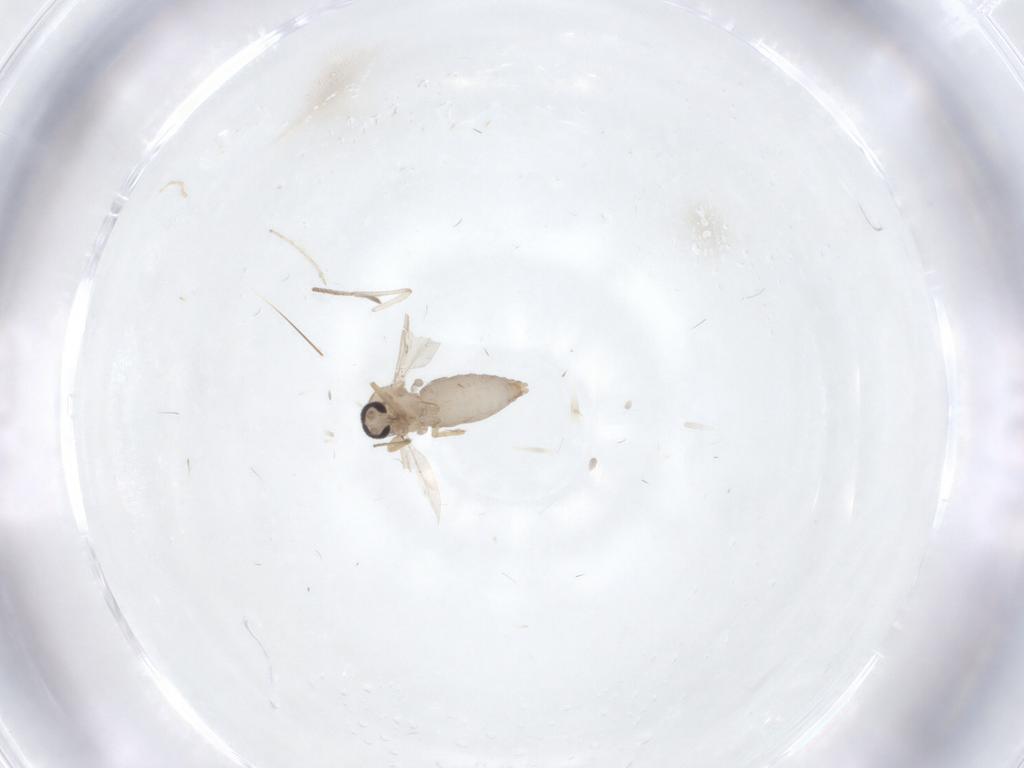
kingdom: Animalia
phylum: Arthropoda
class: Insecta
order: Diptera
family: Ceratopogonidae
